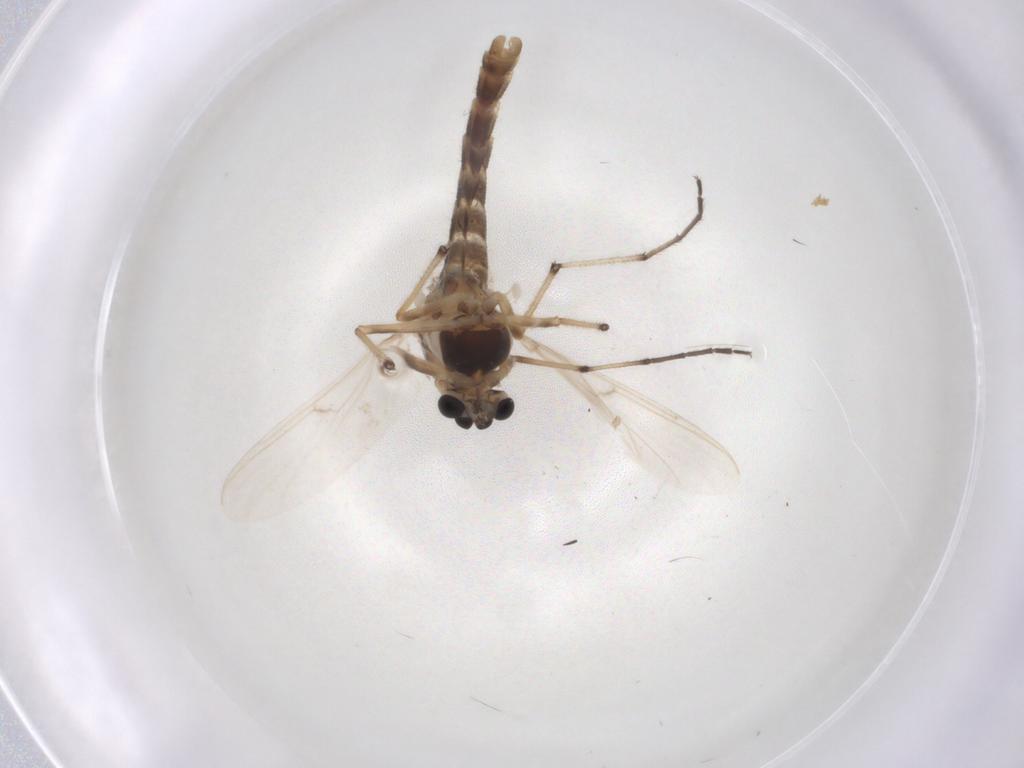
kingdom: Animalia
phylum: Arthropoda
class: Insecta
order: Diptera
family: Chironomidae
